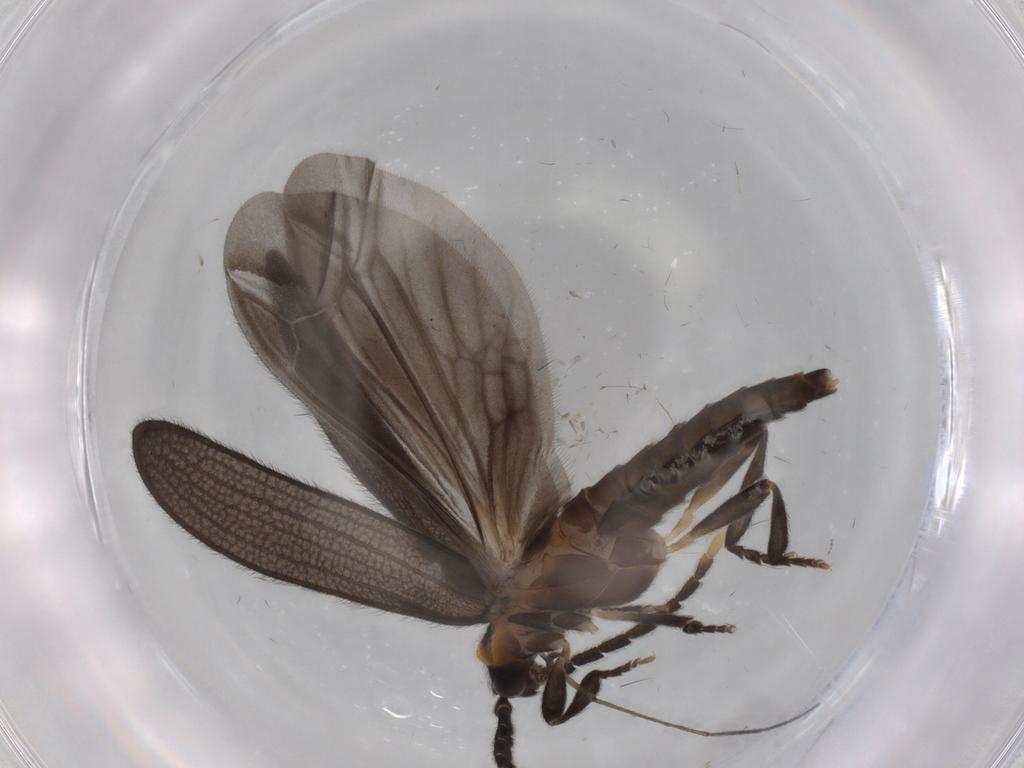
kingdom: Animalia
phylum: Arthropoda
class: Insecta
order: Coleoptera
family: Lycidae
